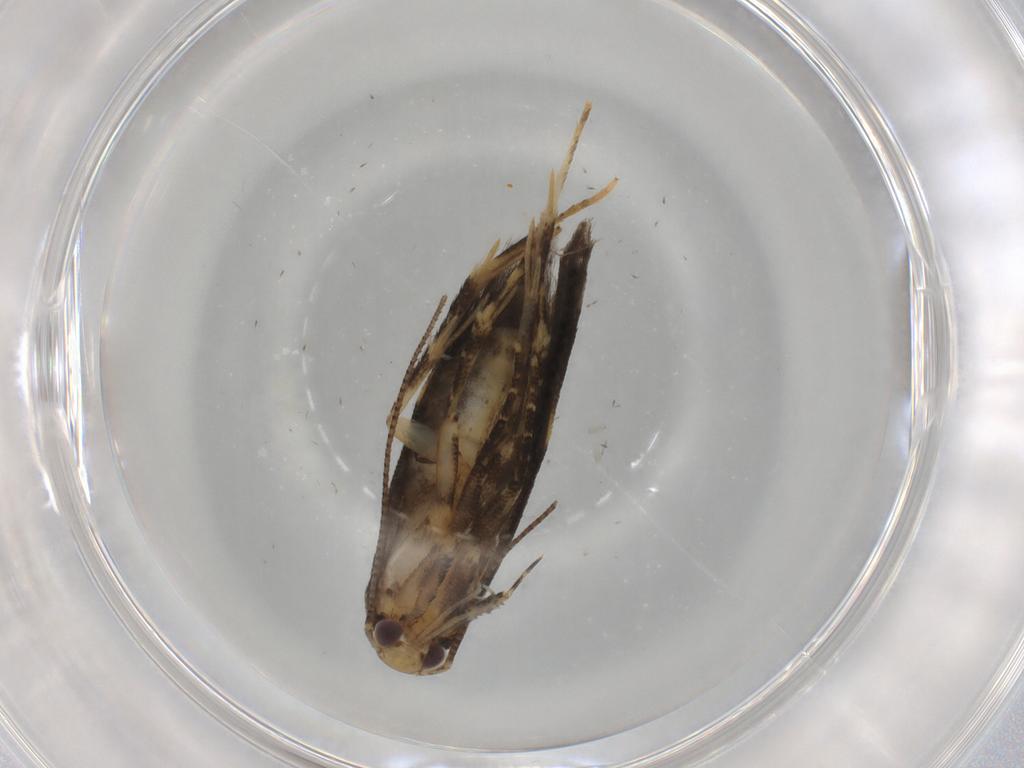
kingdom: Animalia
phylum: Arthropoda
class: Insecta
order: Lepidoptera
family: Gelechiidae
